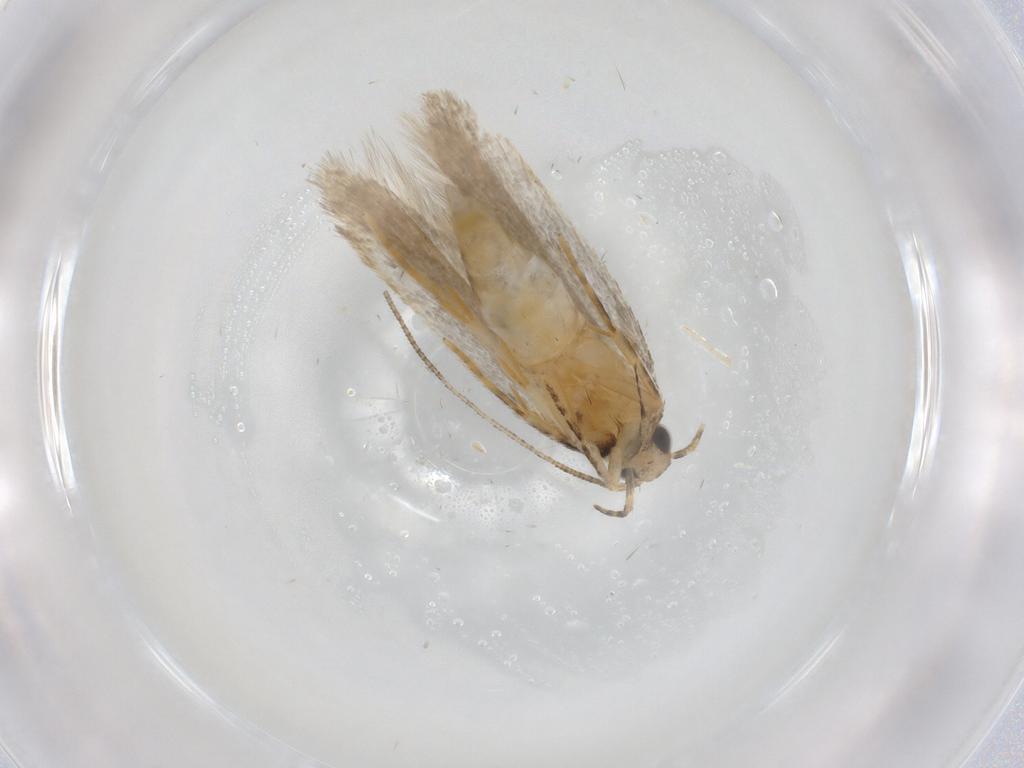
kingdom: Animalia
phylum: Arthropoda
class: Insecta
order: Lepidoptera
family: Autostichidae
